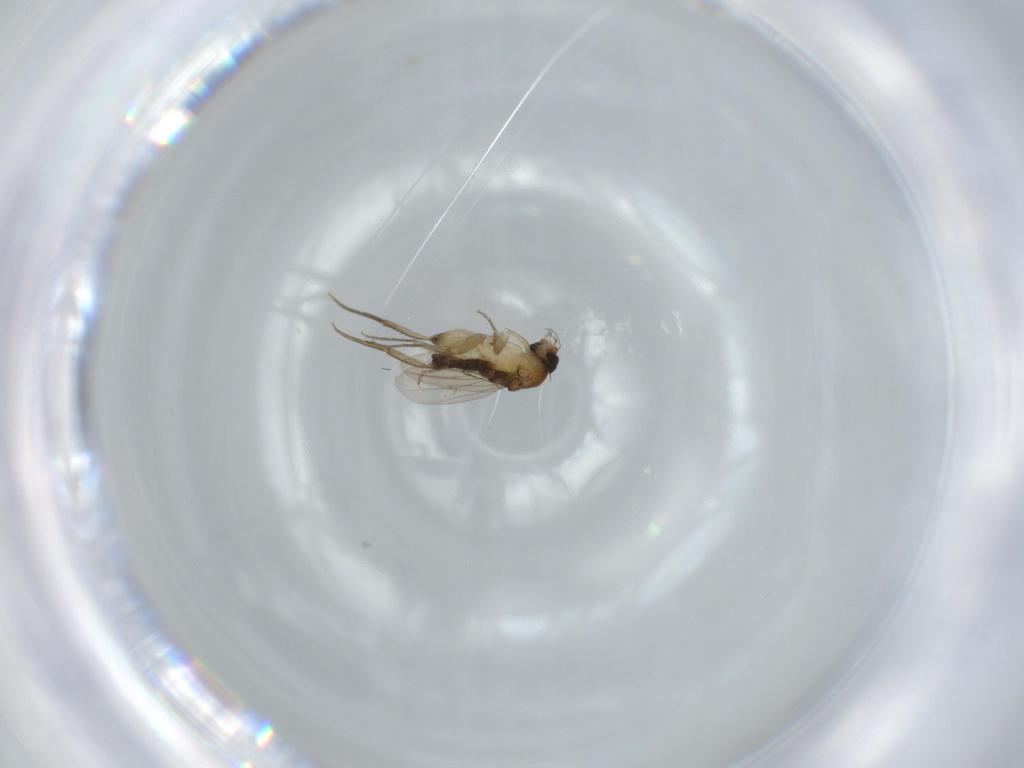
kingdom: Animalia
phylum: Arthropoda
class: Insecta
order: Diptera
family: Phoridae
